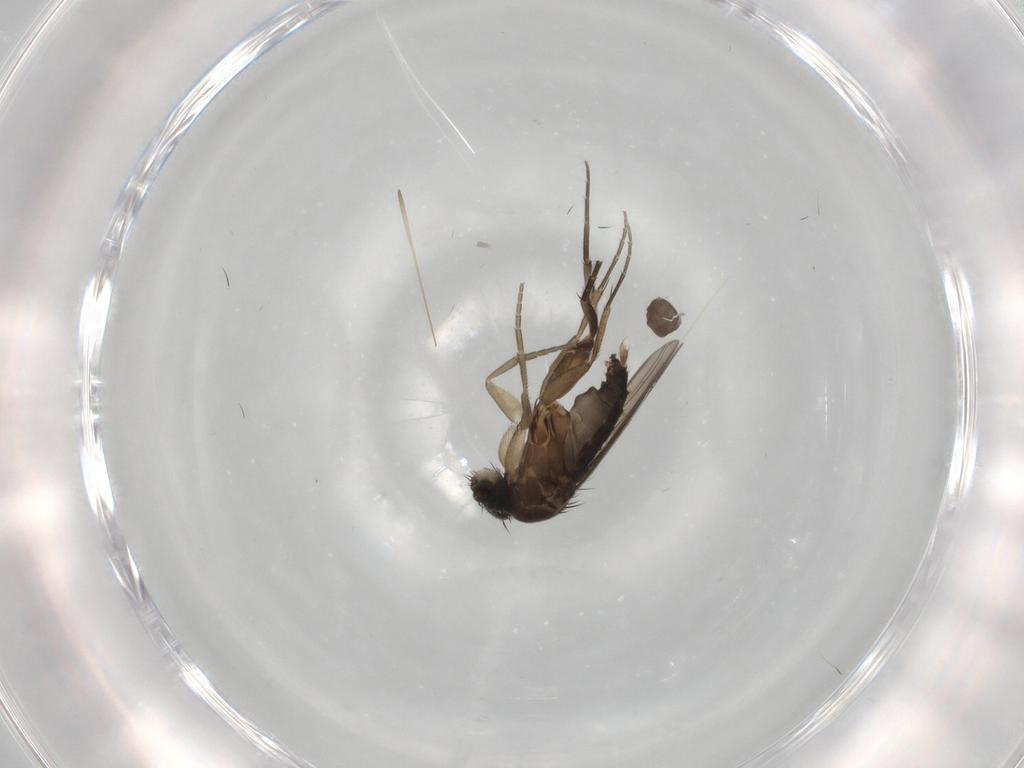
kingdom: Animalia
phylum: Arthropoda
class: Insecta
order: Diptera
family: Phoridae
